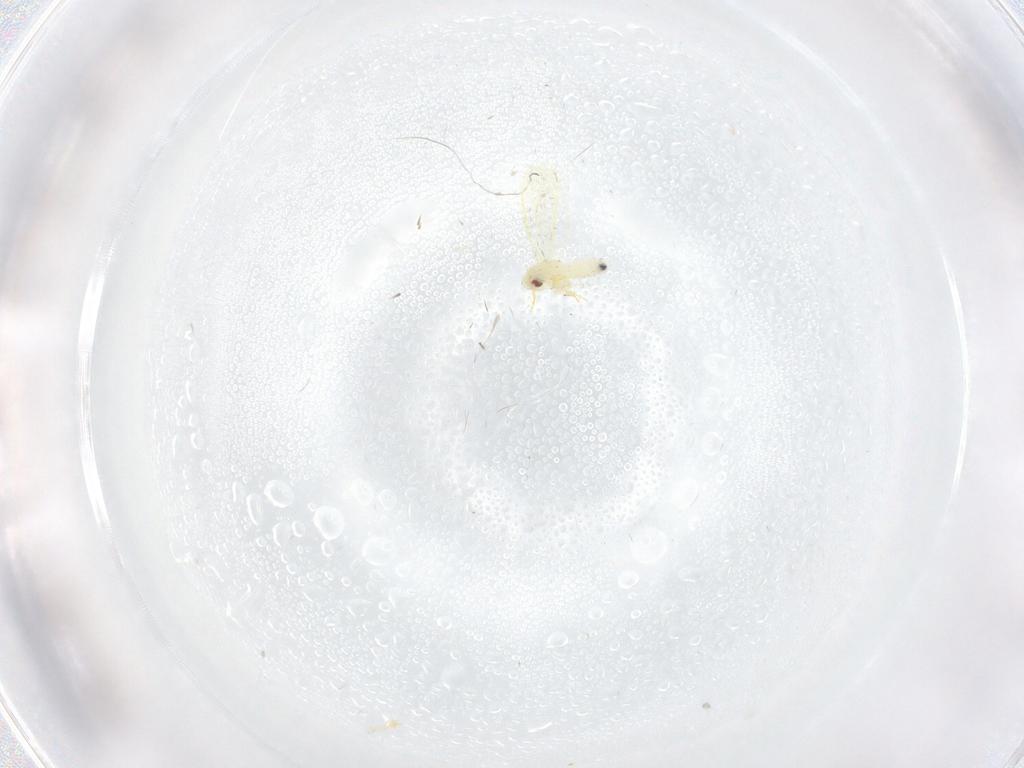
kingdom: Animalia
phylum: Arthropoda
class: Insecta
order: Hemiptera
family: Aleyrodidae
